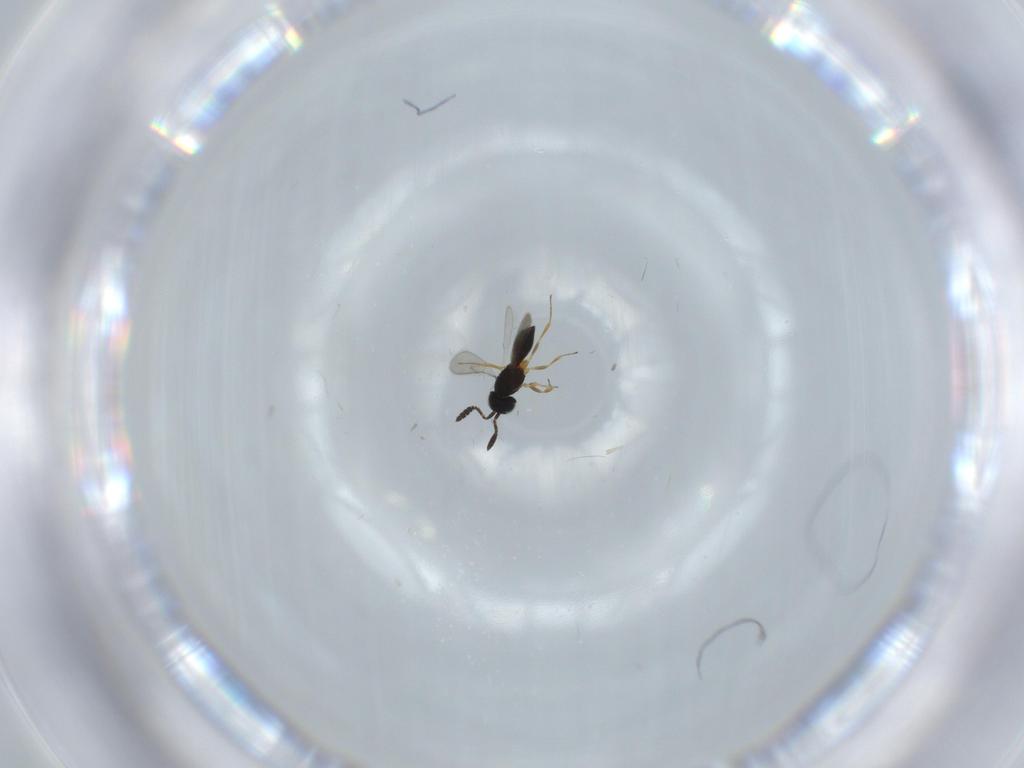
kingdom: Animalia
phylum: Arthropoda
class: Insecta
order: Hymenoptera
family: Scelionidae
